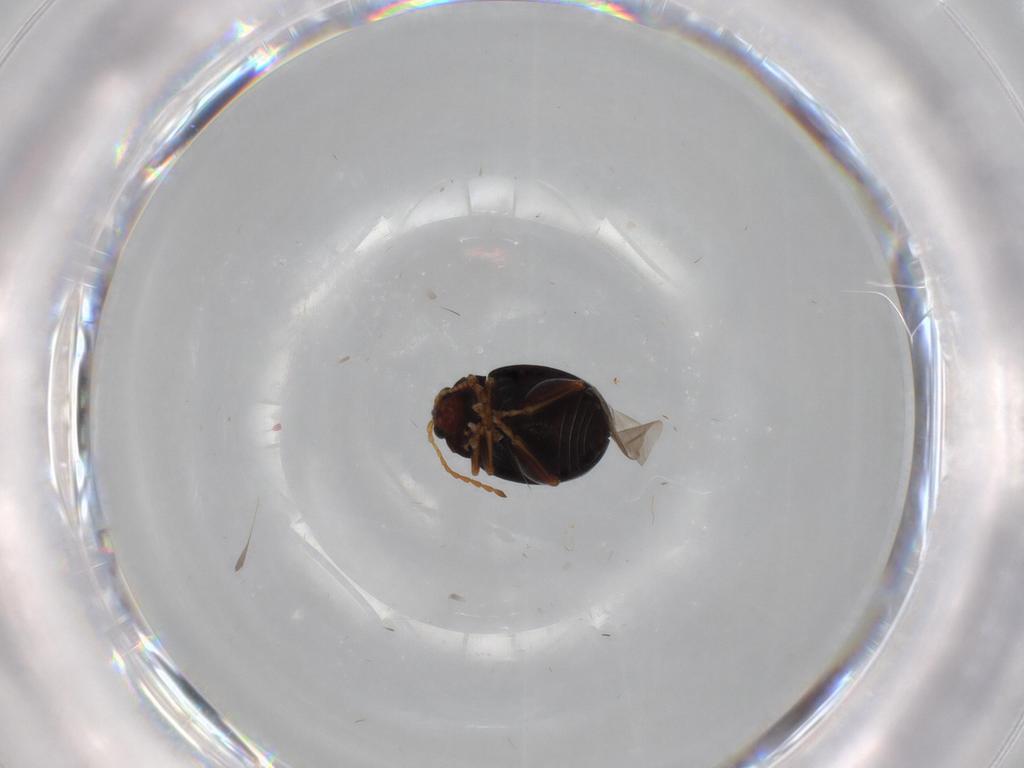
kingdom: Animalia
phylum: Arthropoda
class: Insecta
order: Coleoptera
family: Chrysomelidae
